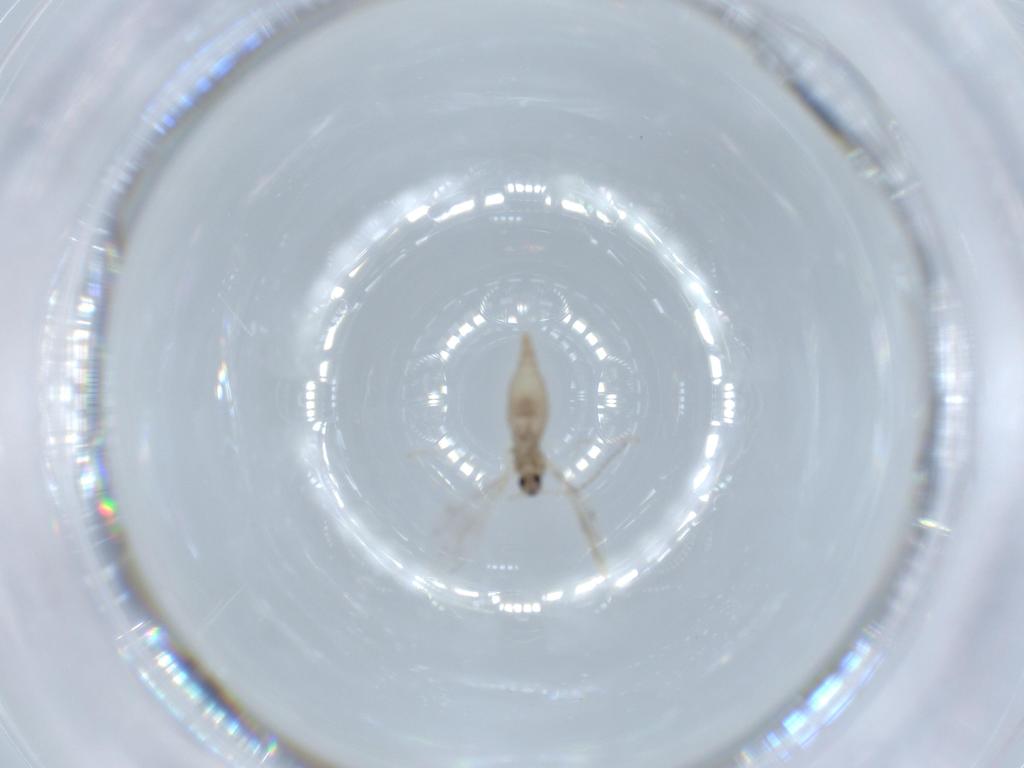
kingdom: Animalia
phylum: Arthropoda
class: Insecta
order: Diptera
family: Cecidomyiidae
